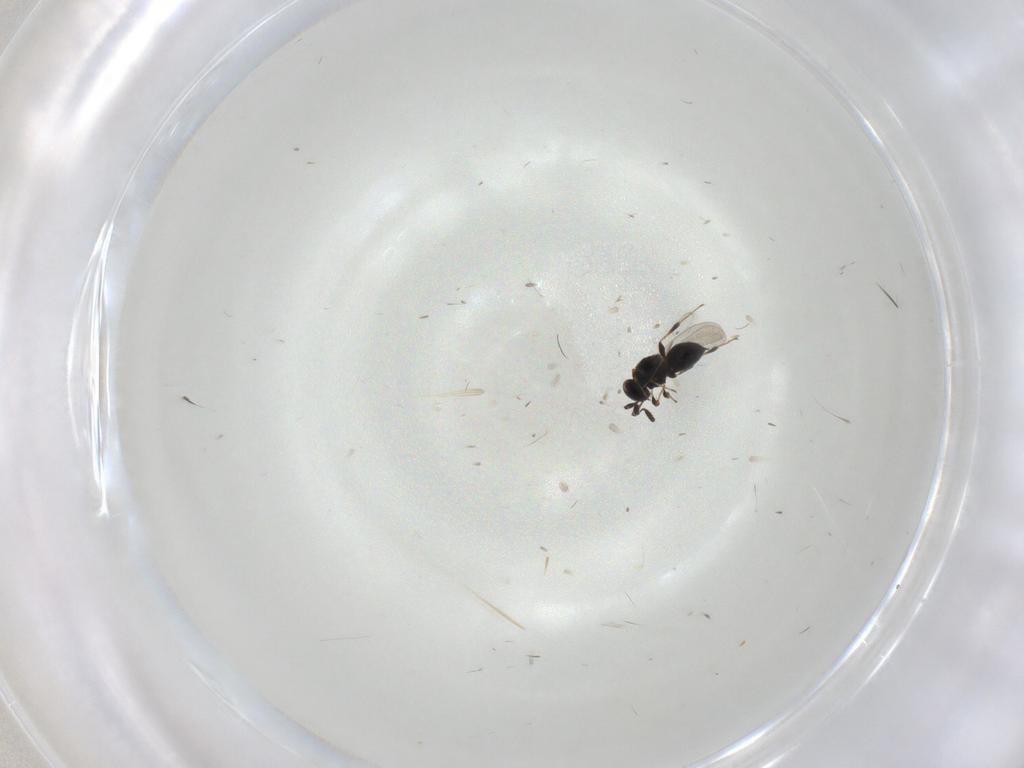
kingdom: Animalia
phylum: Arthropoda
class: Insecta
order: Hymenoptera
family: Platygastridae
